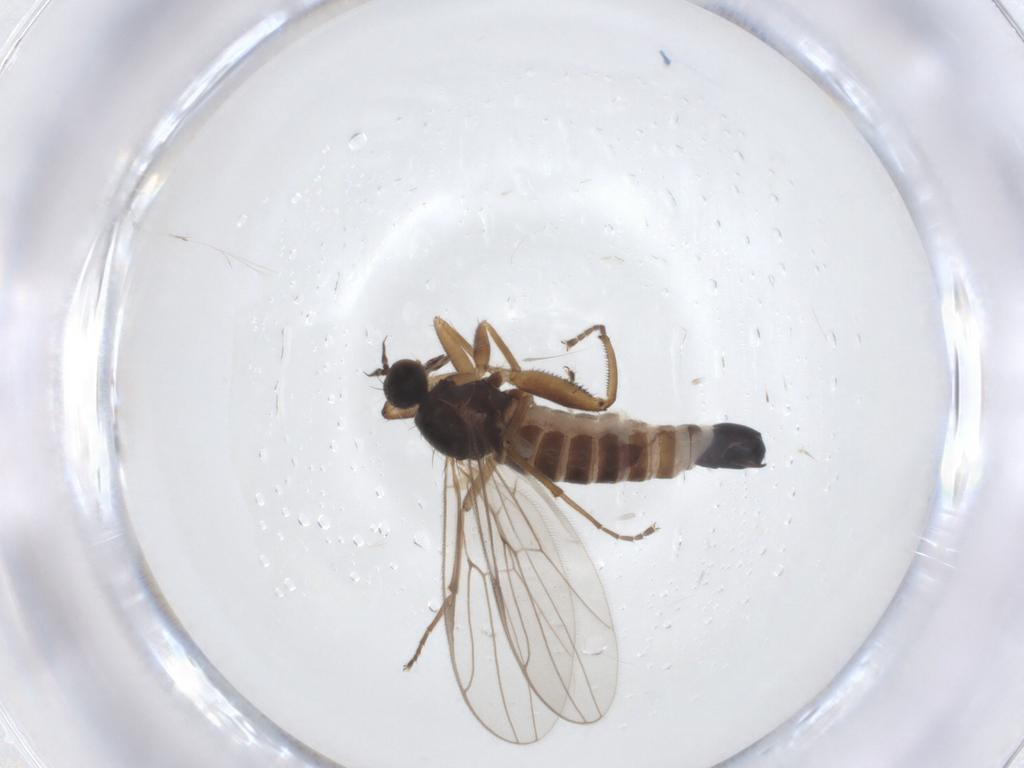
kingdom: Animalia
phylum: Arthropoda
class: Insecta
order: Diptera
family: Hybotidae
